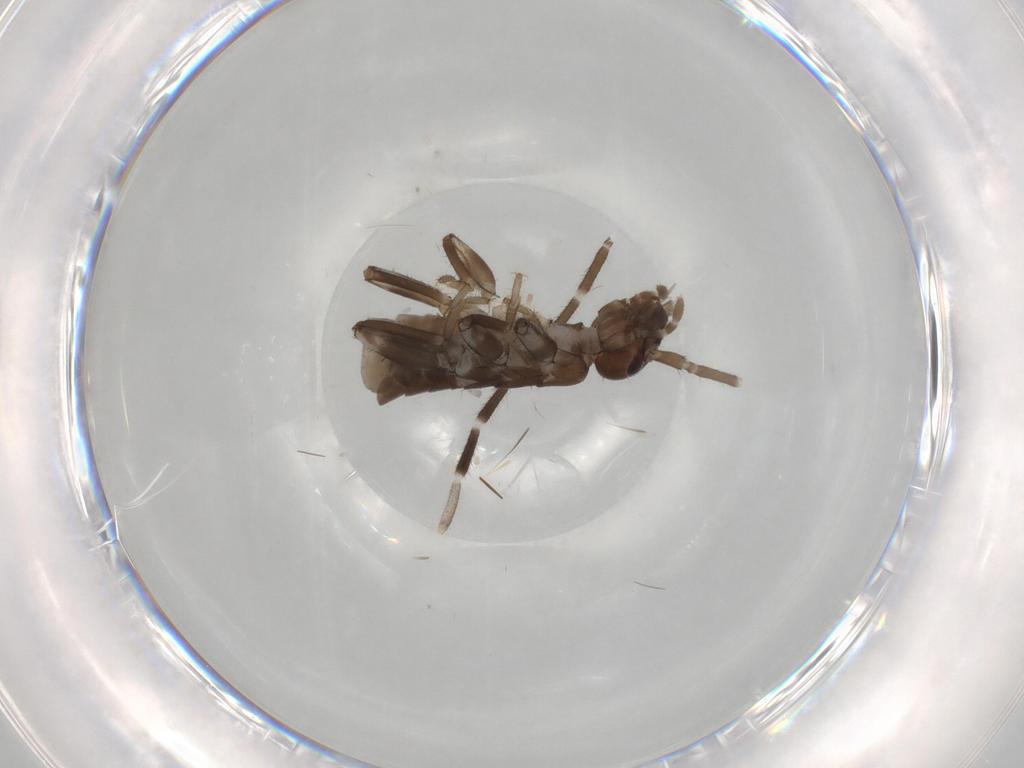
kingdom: Animalia
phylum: Arthropoda
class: Insecta
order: Dermaptera
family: Forficulidae
